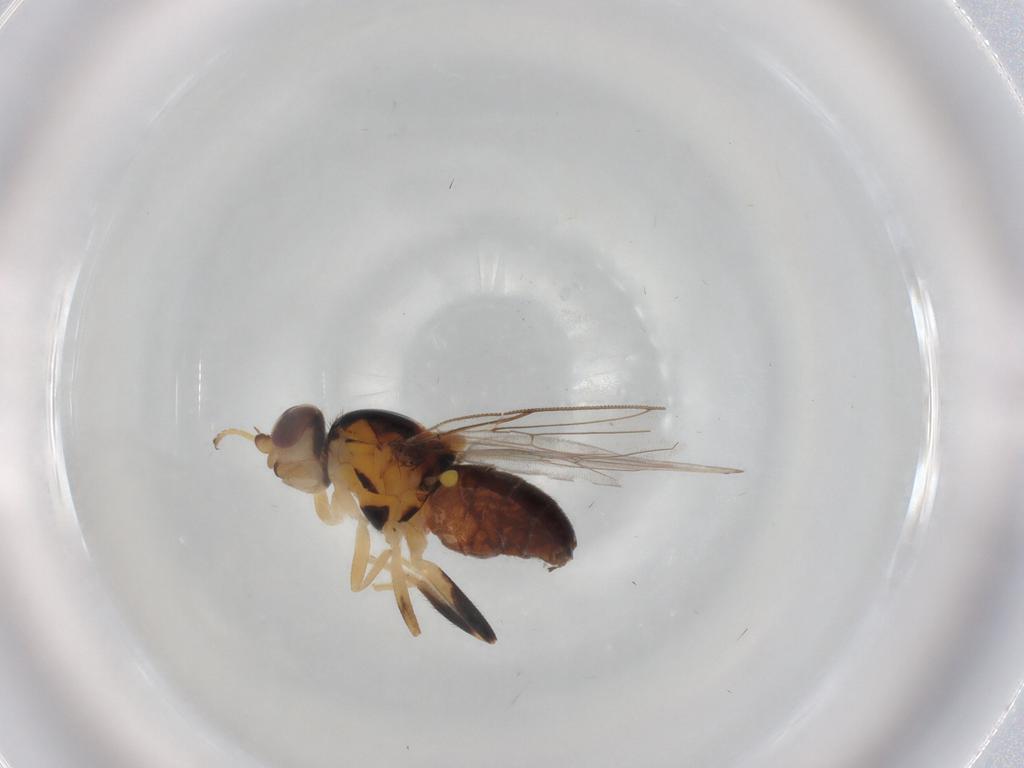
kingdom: Animalia
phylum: Arthropoda
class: Insecta
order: Diptera
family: Chloropidae
